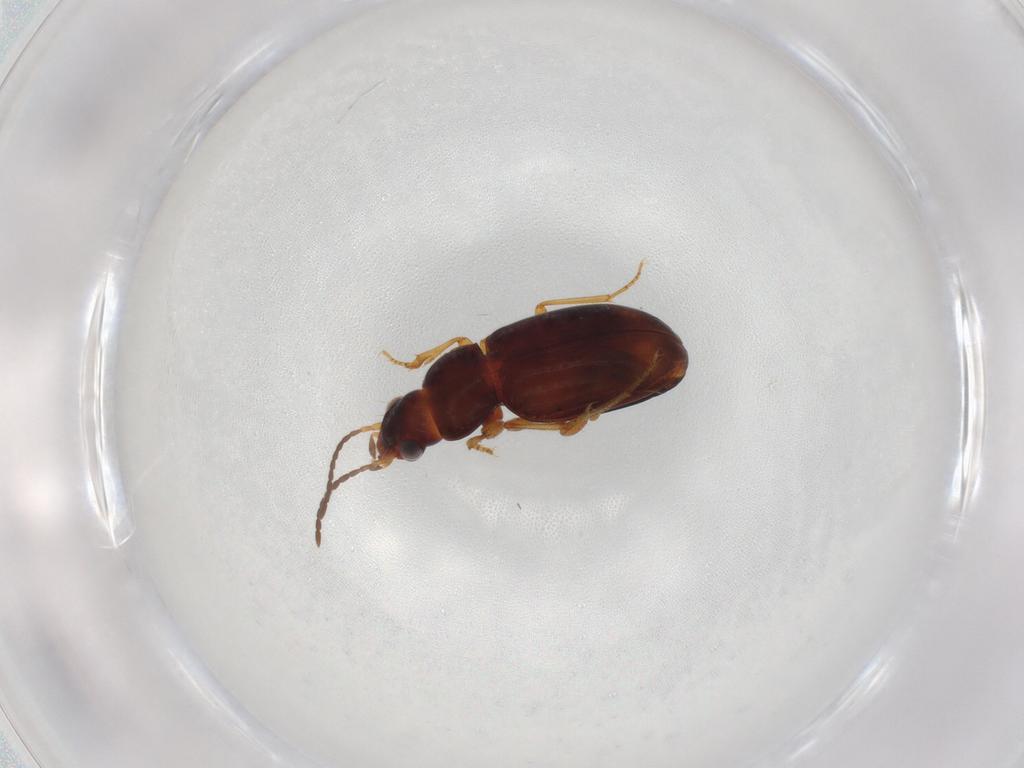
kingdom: Animalia
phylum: Arthropoda
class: Insecta
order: Coleoptera
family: Carabidae
